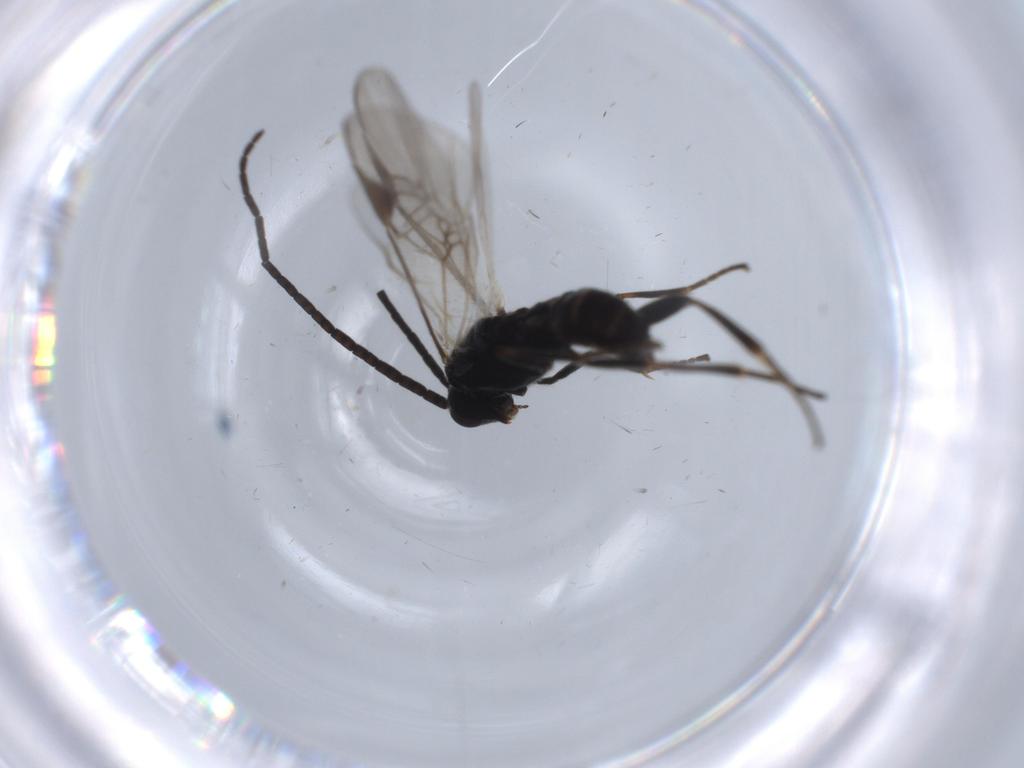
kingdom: Animalia
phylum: Arthropoda
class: Insecta
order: Hymenoptera
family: Braconidae
